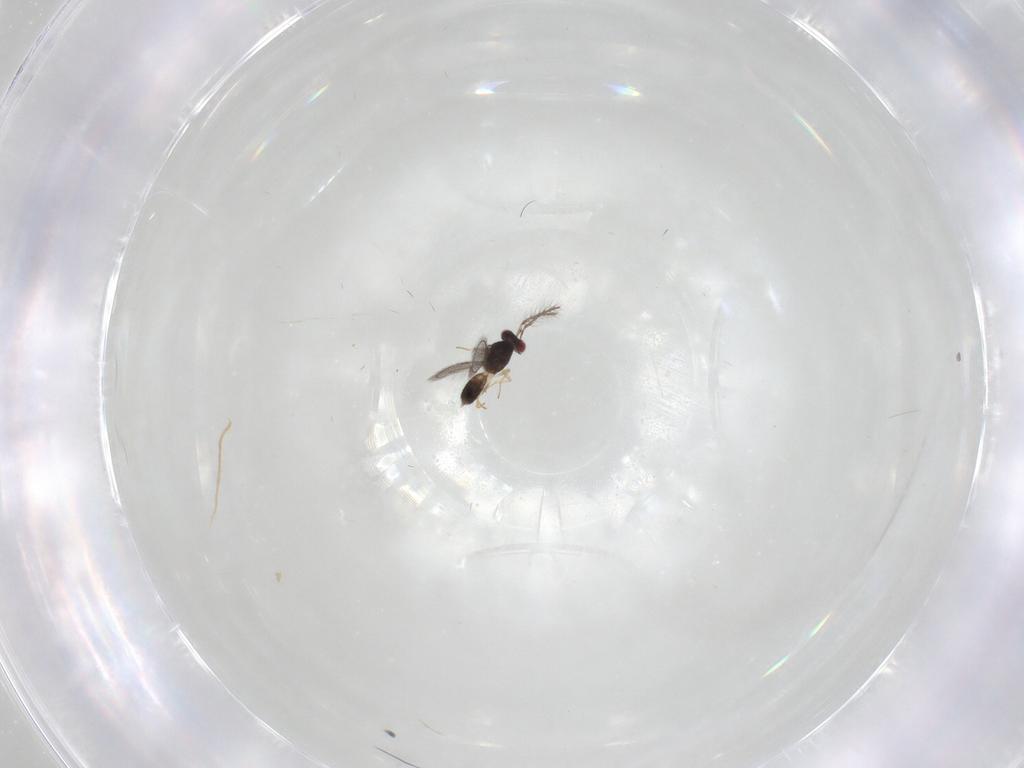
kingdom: Animalia
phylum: Arthropoda
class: Insecta
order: Hymenoptera
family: Eulophidae
